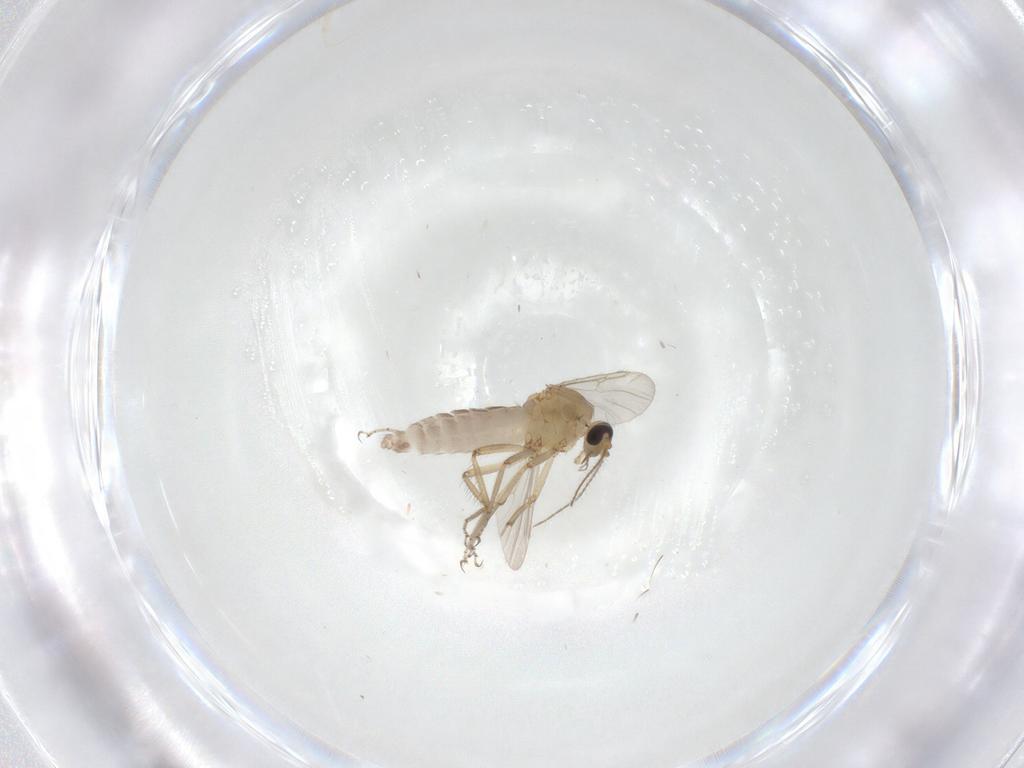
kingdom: Animalia
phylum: Arthropoda
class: Insecta
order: Diptera
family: Ceratopogonidae
